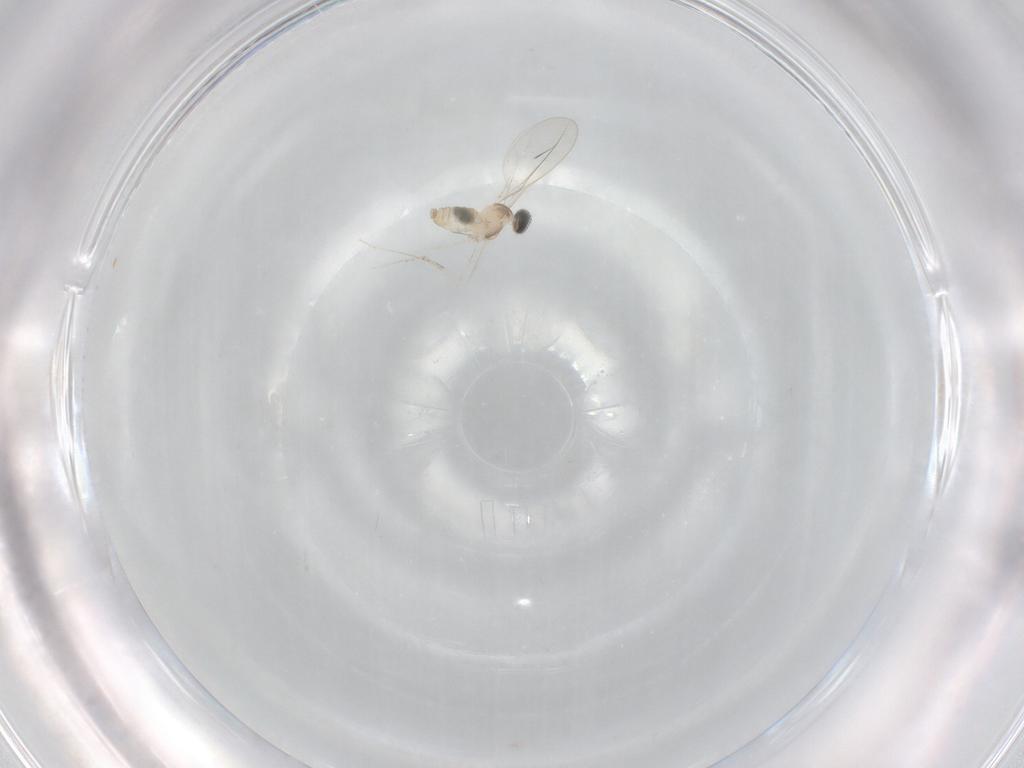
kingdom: Animalia
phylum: Arthropoda
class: Insecta
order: Diptera
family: Cecidomyiidae
